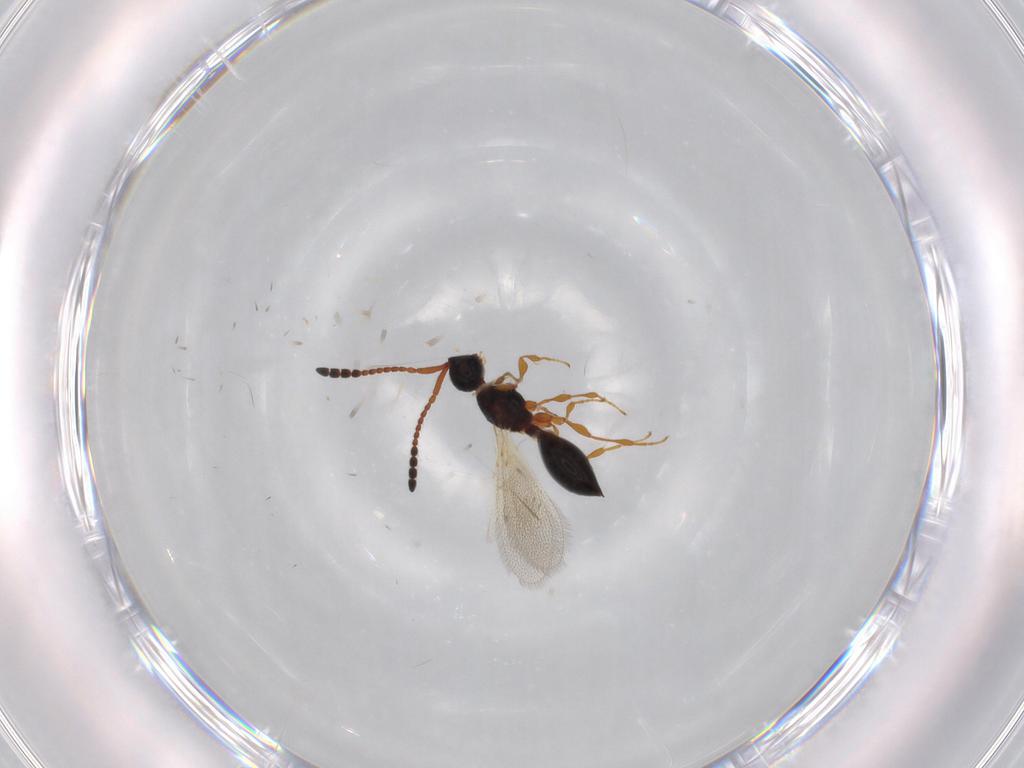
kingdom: Animalia
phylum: Arthropoda
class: Insecta
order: Hymenoptera
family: Diapriidae
